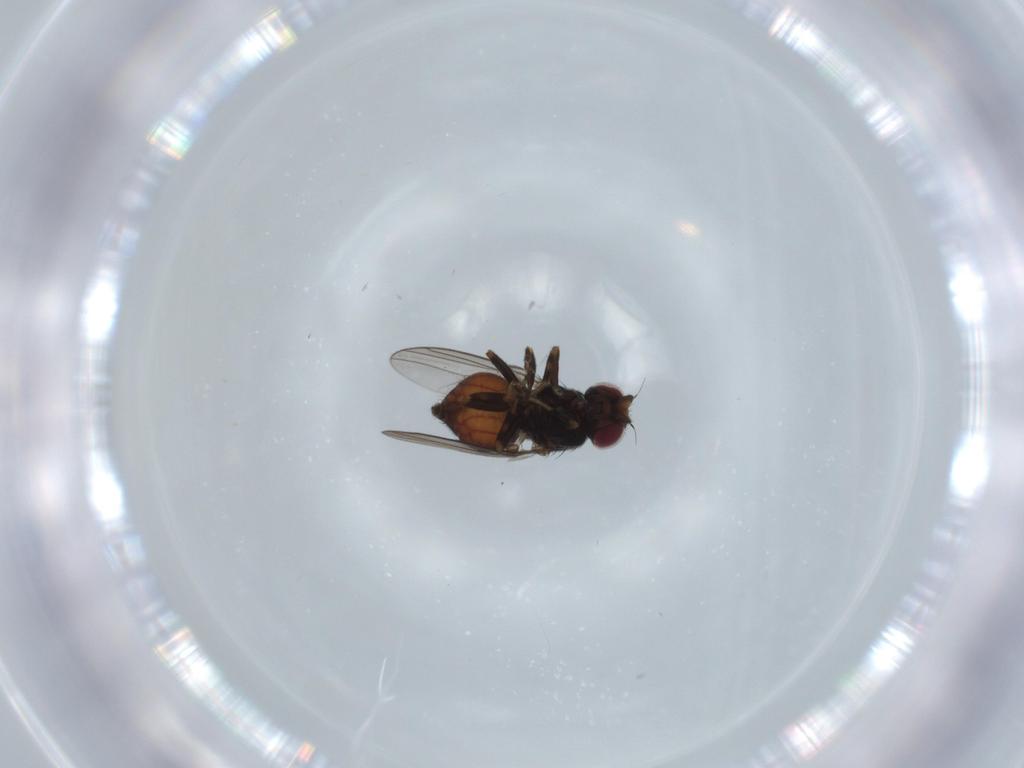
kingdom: Animalia
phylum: Arthropoda
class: Insecta
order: Diptera
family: Chloropidae
